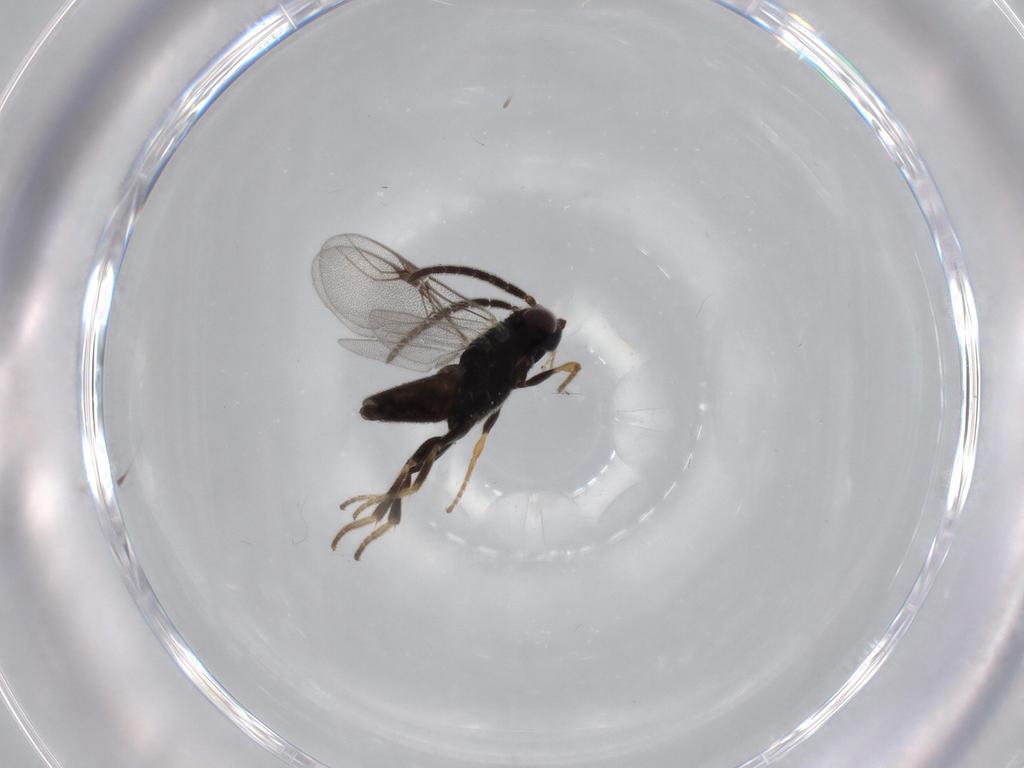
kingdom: Animalia
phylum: Arthropoda
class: Insecta
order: Hymenoptera
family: Dryinidae
